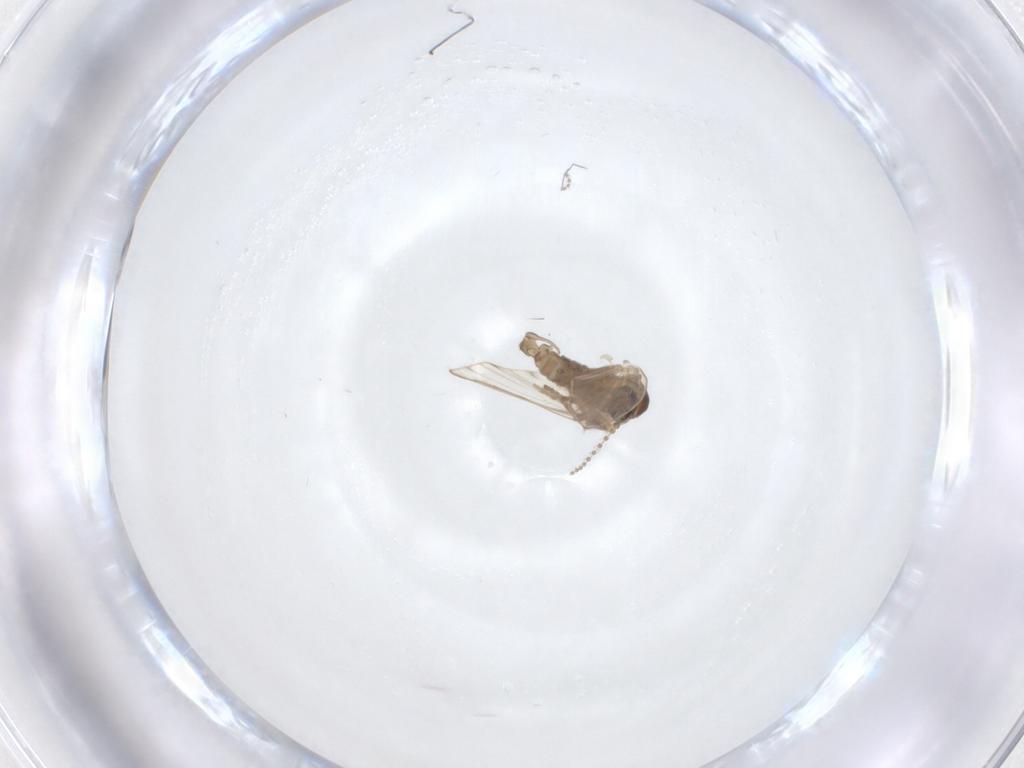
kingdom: Animalia
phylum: Arthropoda
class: Insecta
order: Diptera
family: Psychodidae
